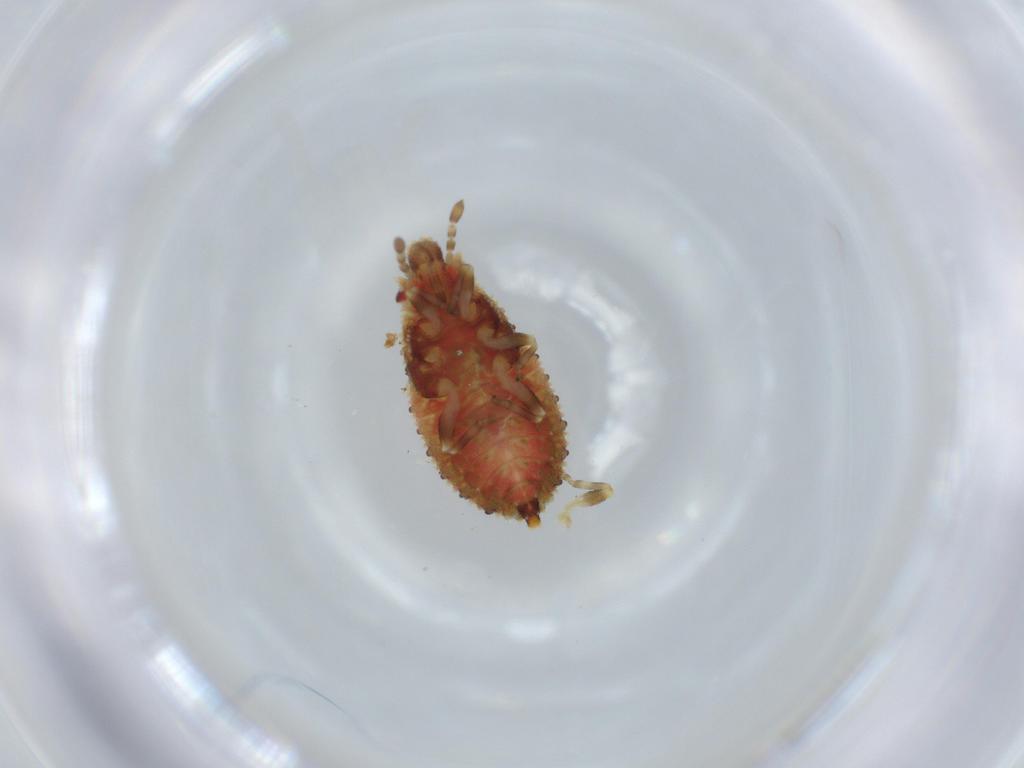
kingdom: Animalia
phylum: Arthropoda
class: Insecta
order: Hemiptera
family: Aradidae
